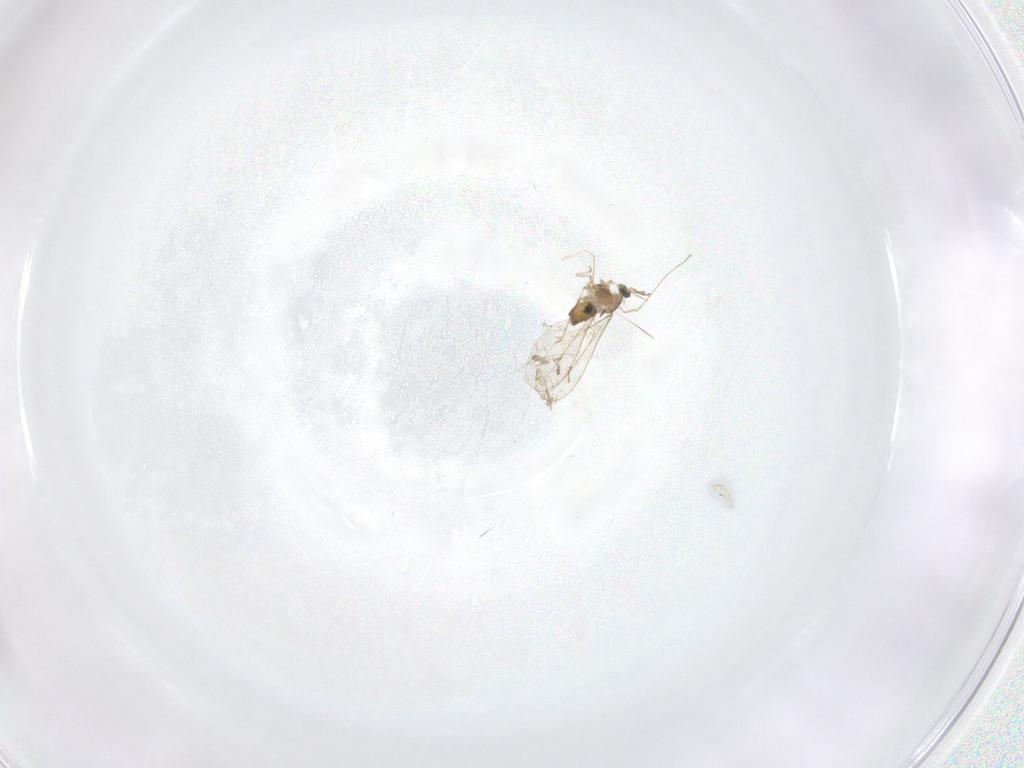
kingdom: Animalia
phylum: Arthropoda
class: Insecta
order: Diptera
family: Cecidomyiidae
